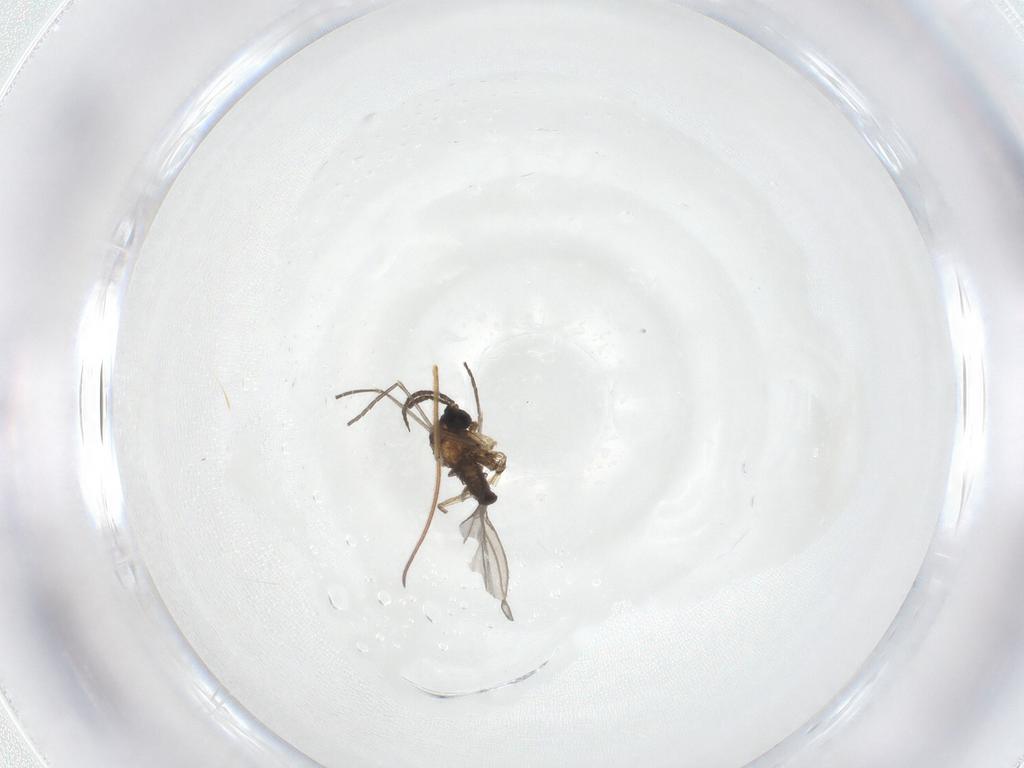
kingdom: Animalia
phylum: Arthropoda
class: Insecta
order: Diptera
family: Sciaridae
